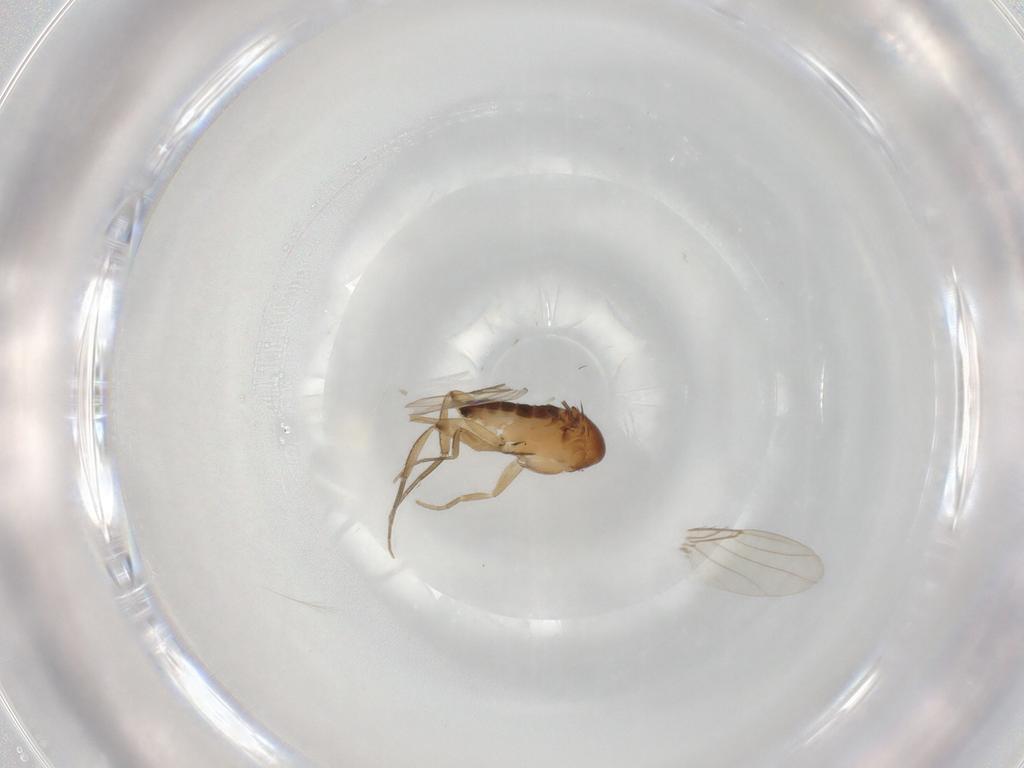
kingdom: Animalia
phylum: Arthropoda
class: Insecta
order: Diptera
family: Phoridae
